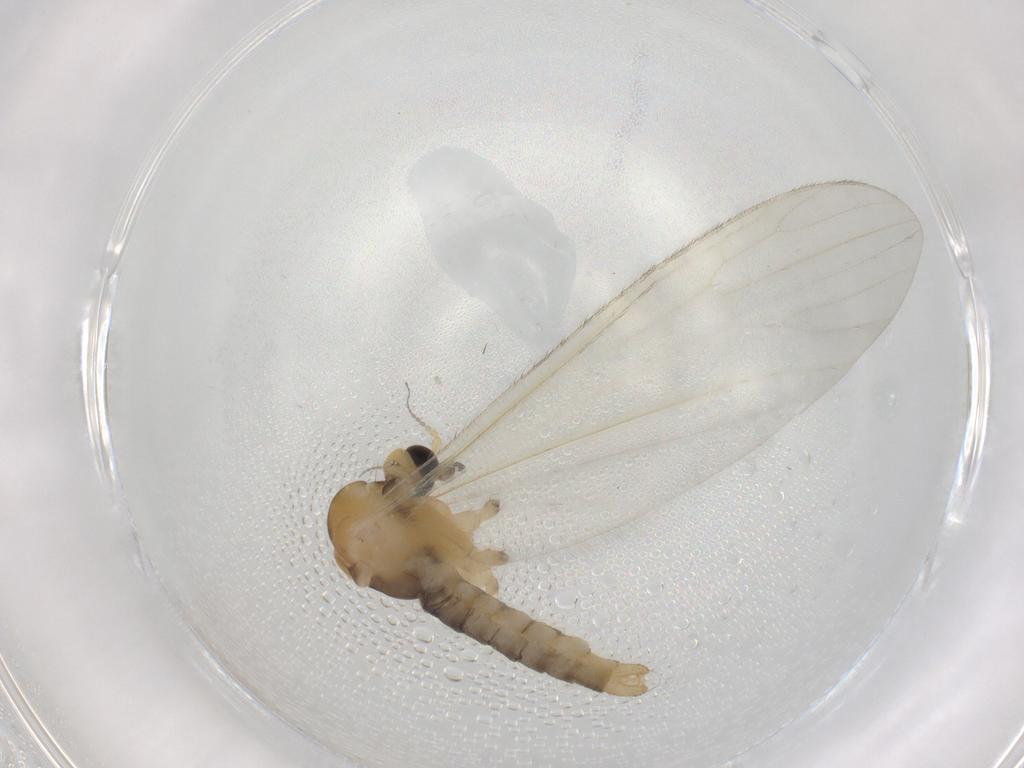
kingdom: Animalia
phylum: Arthropoda
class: Insecta
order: Diptera
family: Limoniidae
